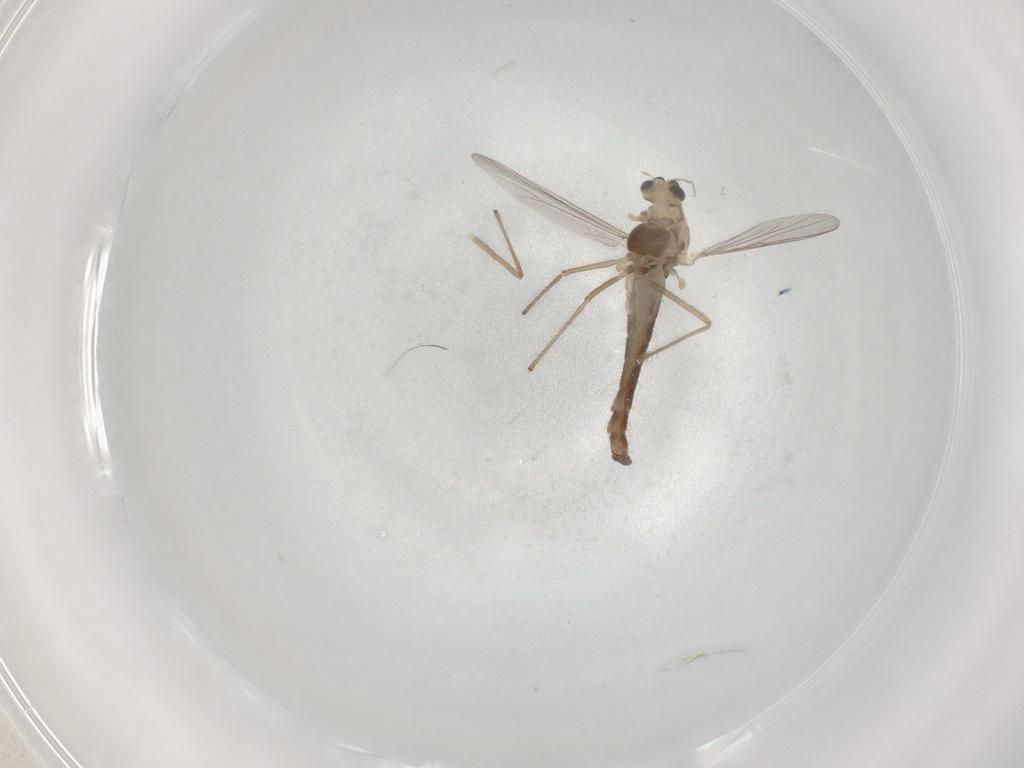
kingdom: Animalia
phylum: Arthropoda
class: Insecta
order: Diptera
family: Chironomidae
